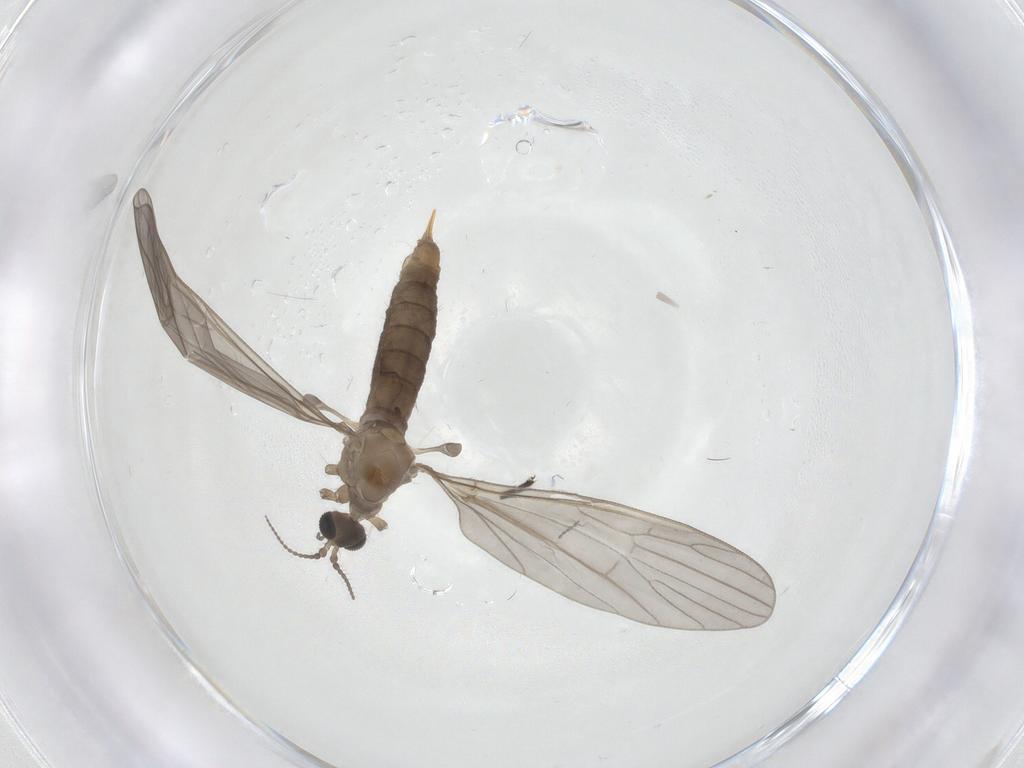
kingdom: Animalia
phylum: Arthropoda
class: Insecta
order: Diptera
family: Limoniidae
